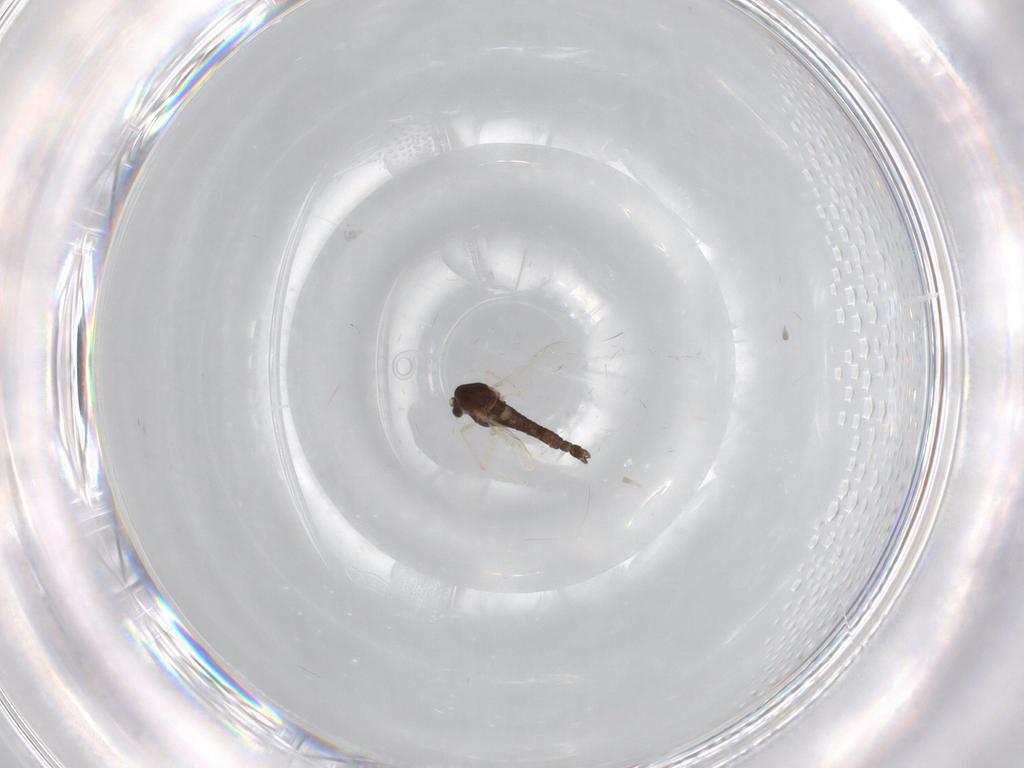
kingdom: Animalia
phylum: Arthropoda
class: Insecta
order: Diptera
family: Chironomidae
